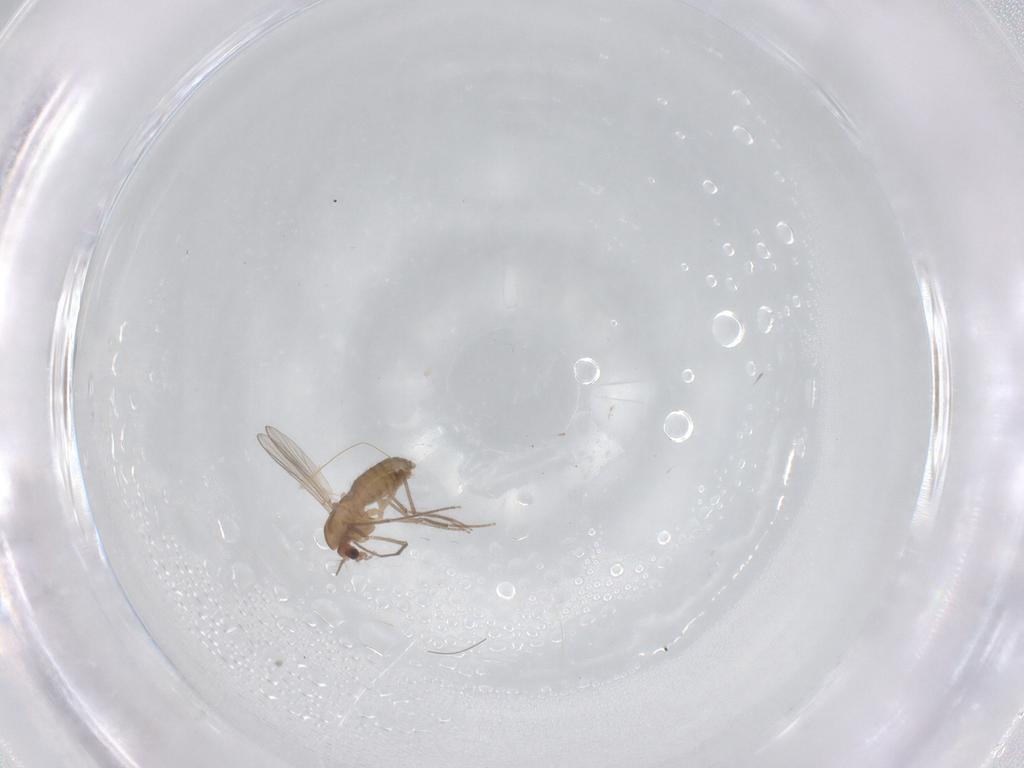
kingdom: Animalia
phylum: Arthropoda
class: Insecta
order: Diptera
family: Chironomidae
